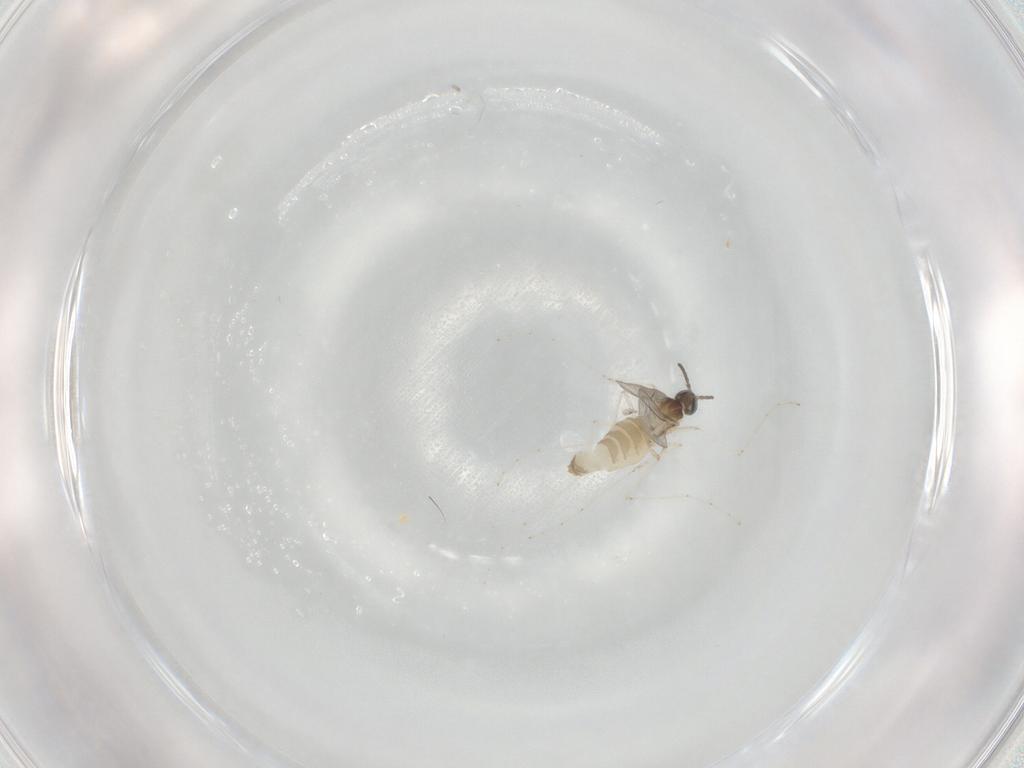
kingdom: Animalia
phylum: Arthropoda
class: Insecta
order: Diptera
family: Cecidomyiidae
